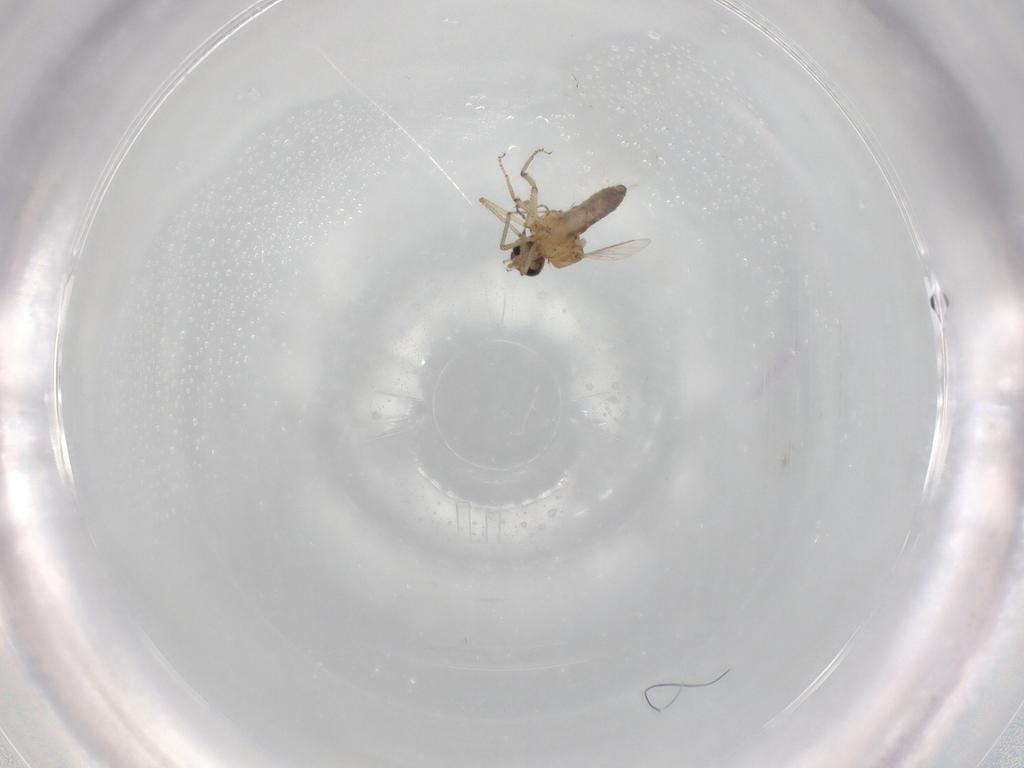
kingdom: Animalia
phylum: Arthropoda
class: Insecta
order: Diptera
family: Ceratopogonidae
